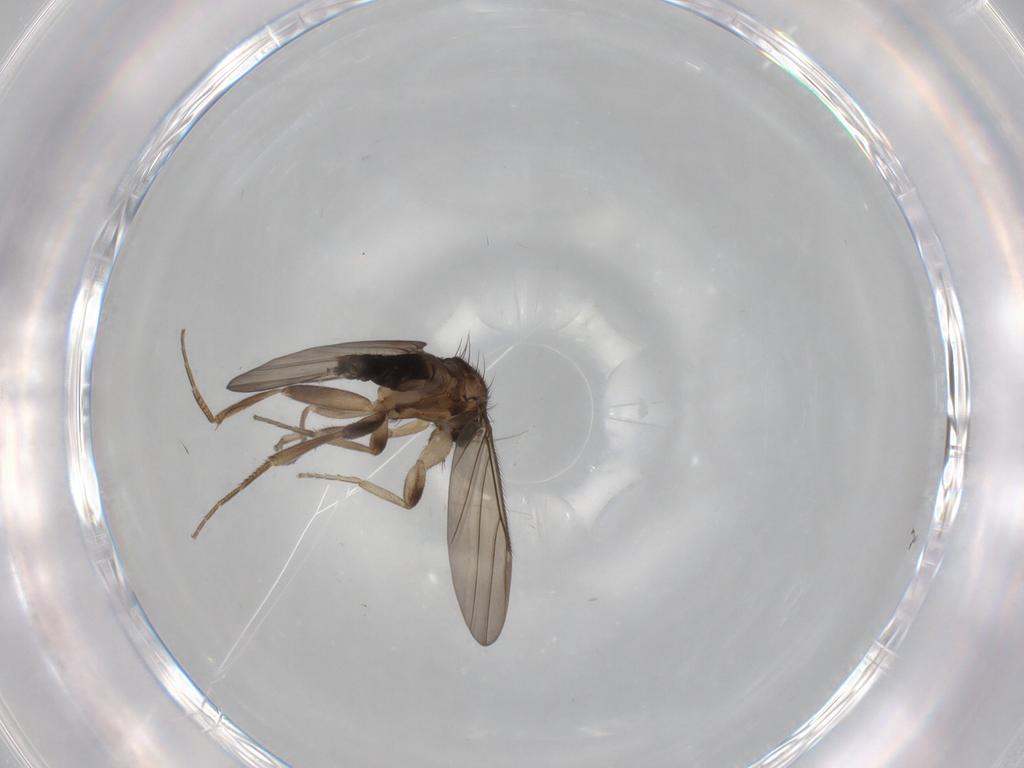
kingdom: Animalia
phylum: Arthropoda
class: Insecta
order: Diptera
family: Phoridae
